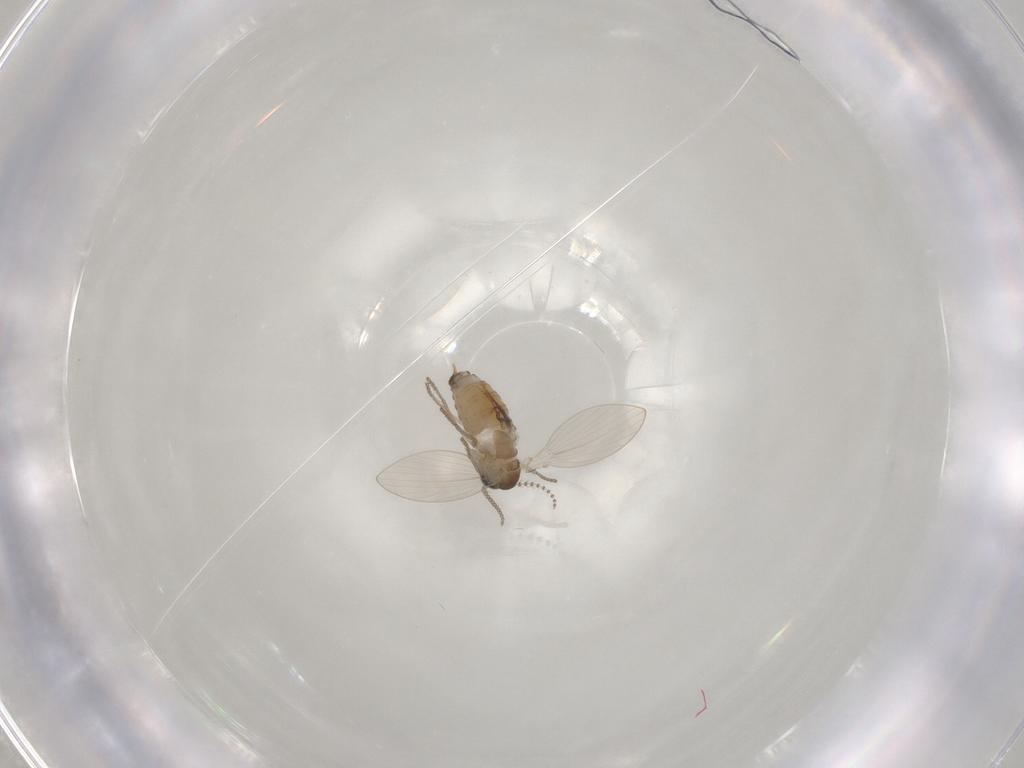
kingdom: Animalia
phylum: Arthropoda
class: Insecta
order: Diptera
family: Psychodidae
